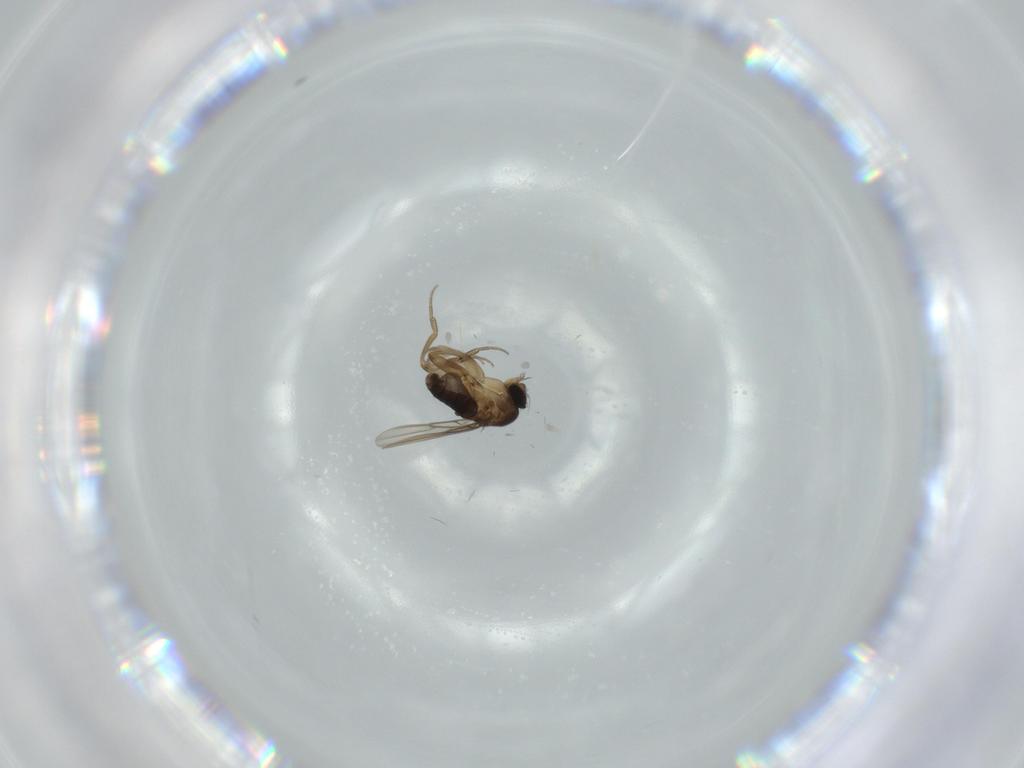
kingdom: Animalia
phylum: Arthropoda
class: Insecta
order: Diptera
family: Phoridae
